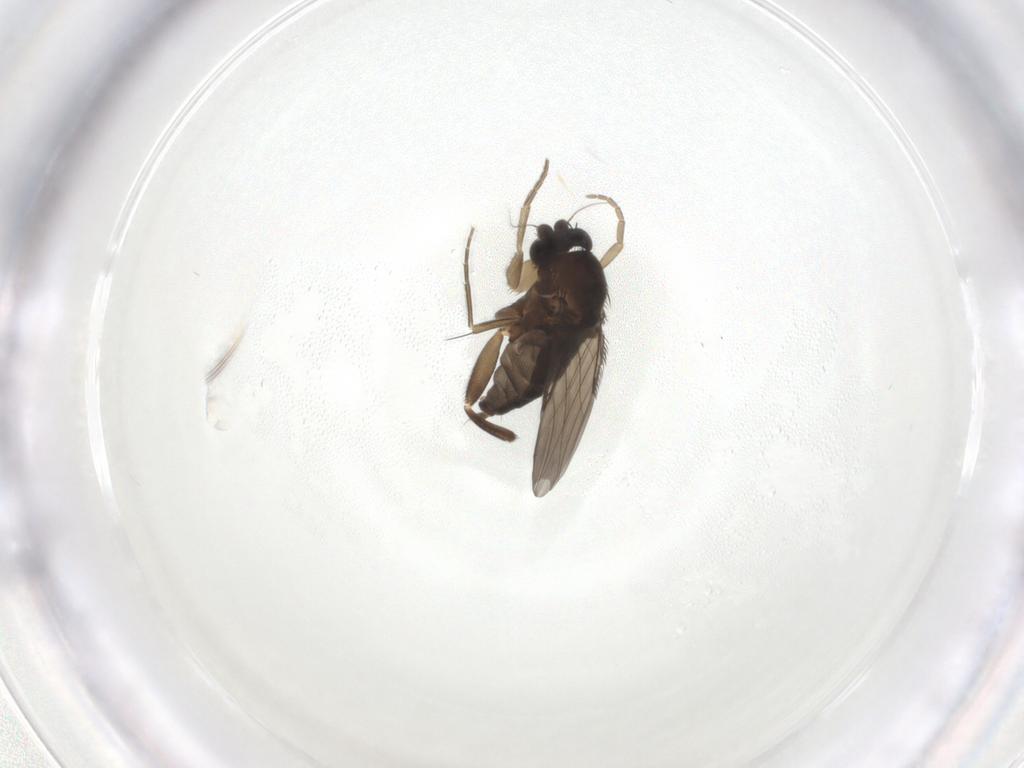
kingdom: Animalia
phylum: Arthropoda
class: Insecta
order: Diptera
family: Phoridae
